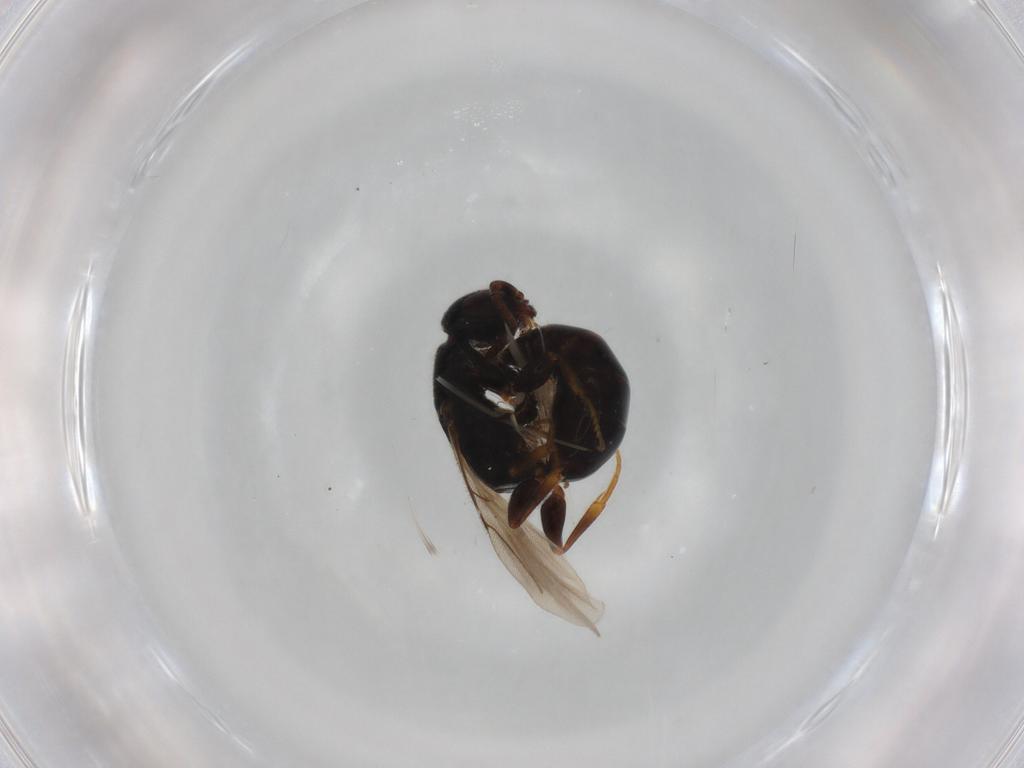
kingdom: Animalia
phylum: Arthropoda
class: Insecta
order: Hymenoptera
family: Bethylidae
